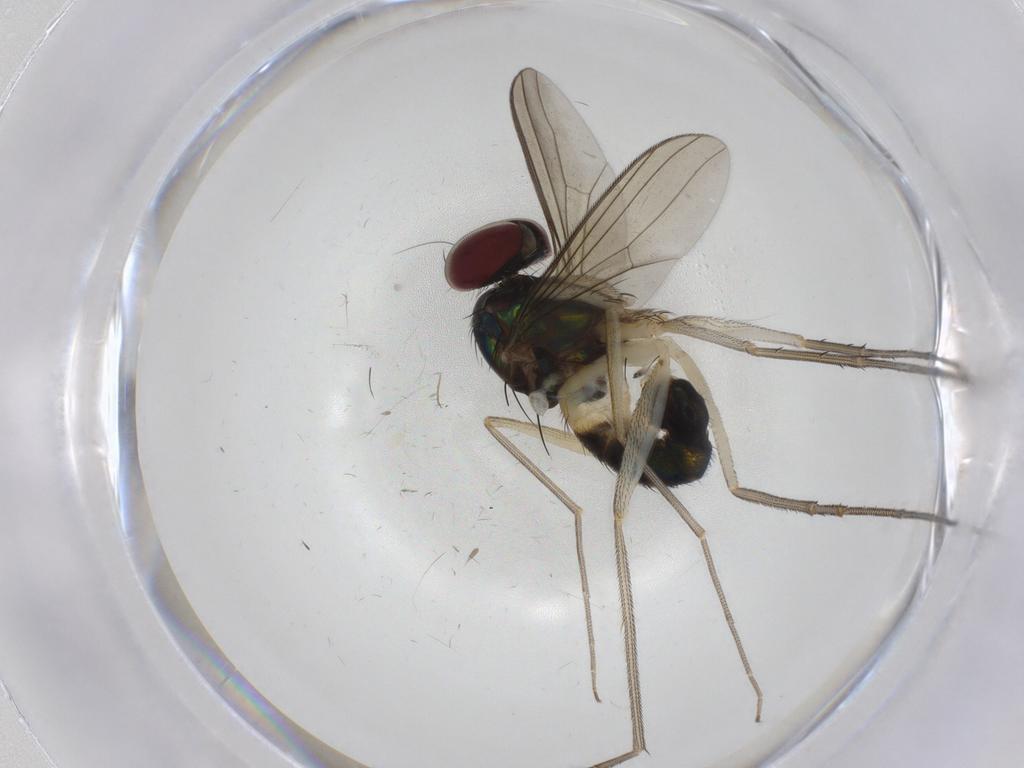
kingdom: Animalia
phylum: Arthropoda
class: Insecta
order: Diptera
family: Dolichopodidae
